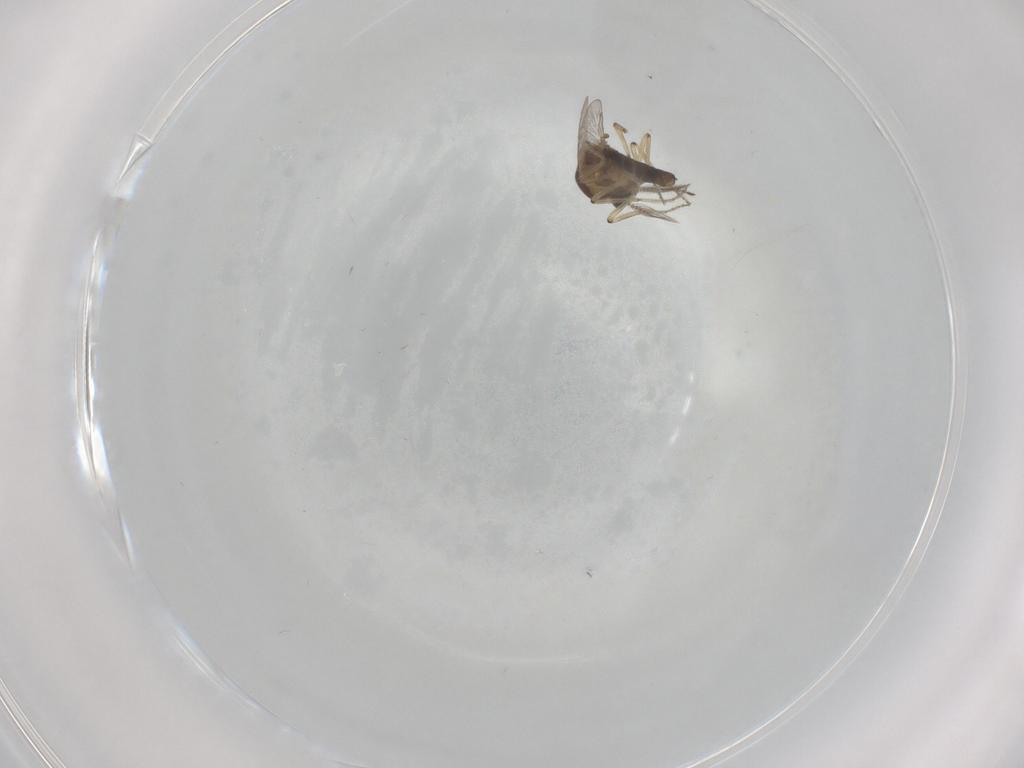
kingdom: Animalia
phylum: Arthropoda
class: Insecta
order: Diptera
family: Ceratopogonidae
